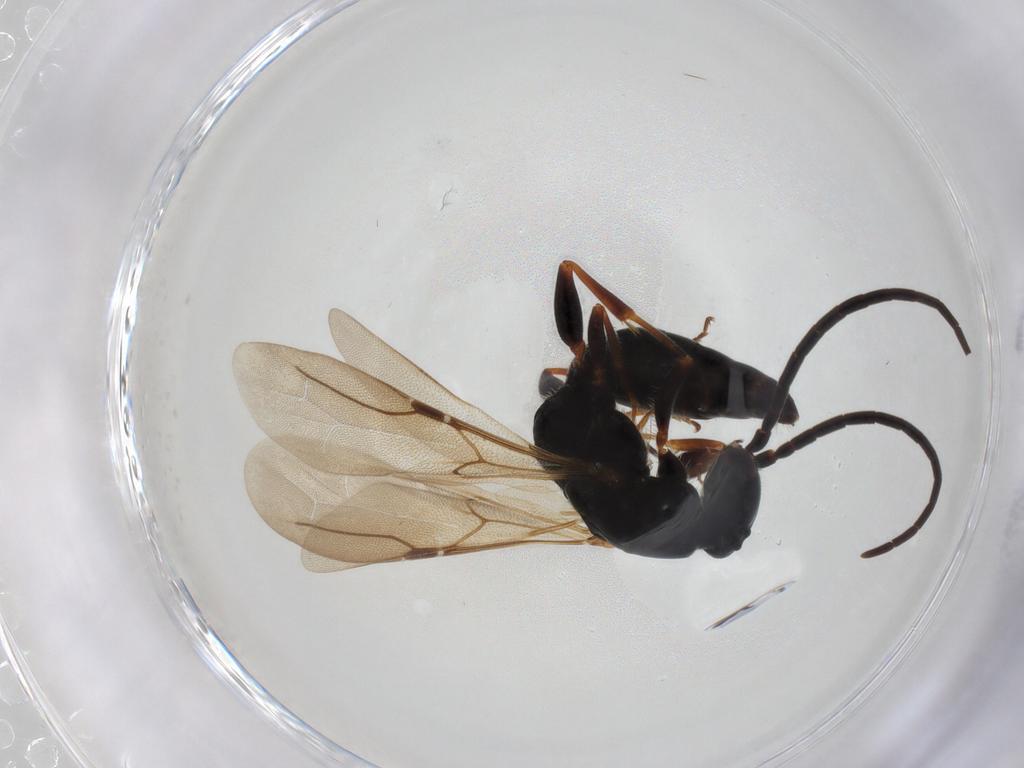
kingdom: Animalia
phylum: Arthropoda
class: Insecta
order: Hymenoptera
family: Bethylidae
